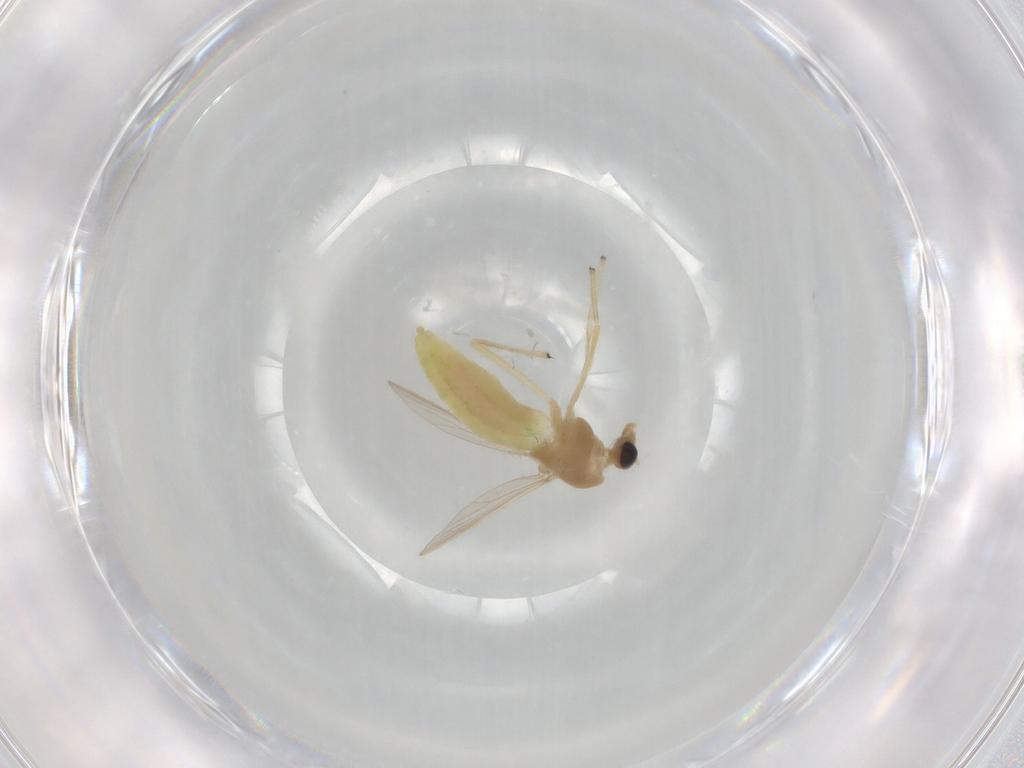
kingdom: Animalia
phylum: Arthropoda
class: Insecta
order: Diptera
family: Chironomidae
